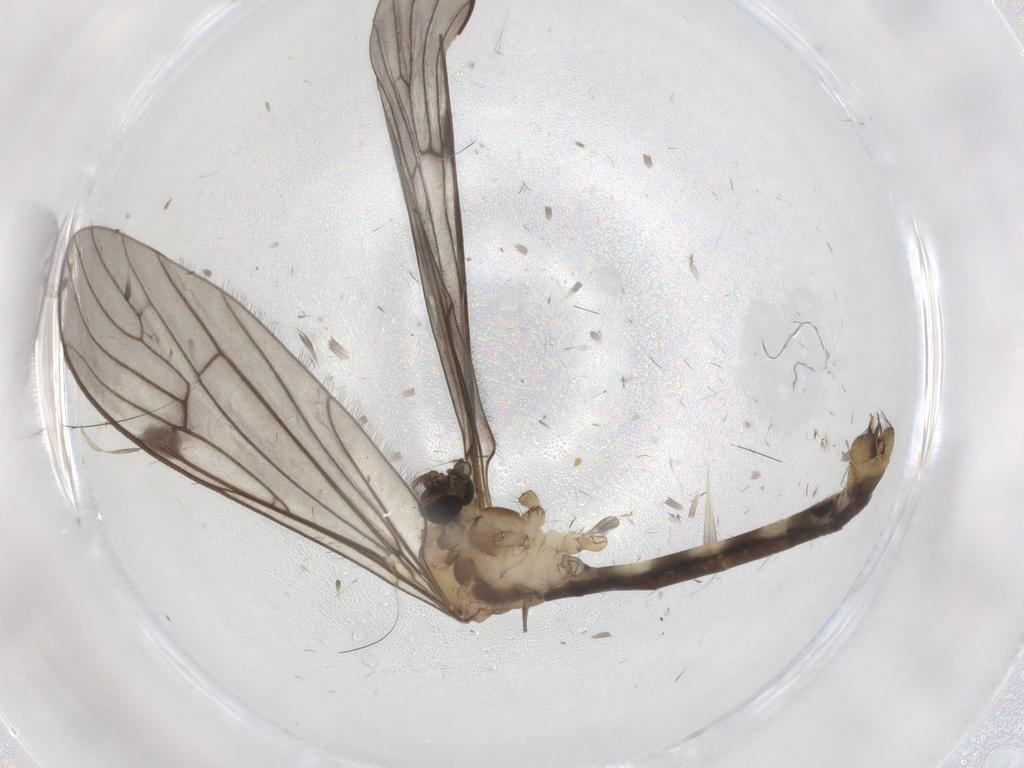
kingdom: Animalia
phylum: Arthropoda
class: Insecta
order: Diptera
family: Limoniidae
